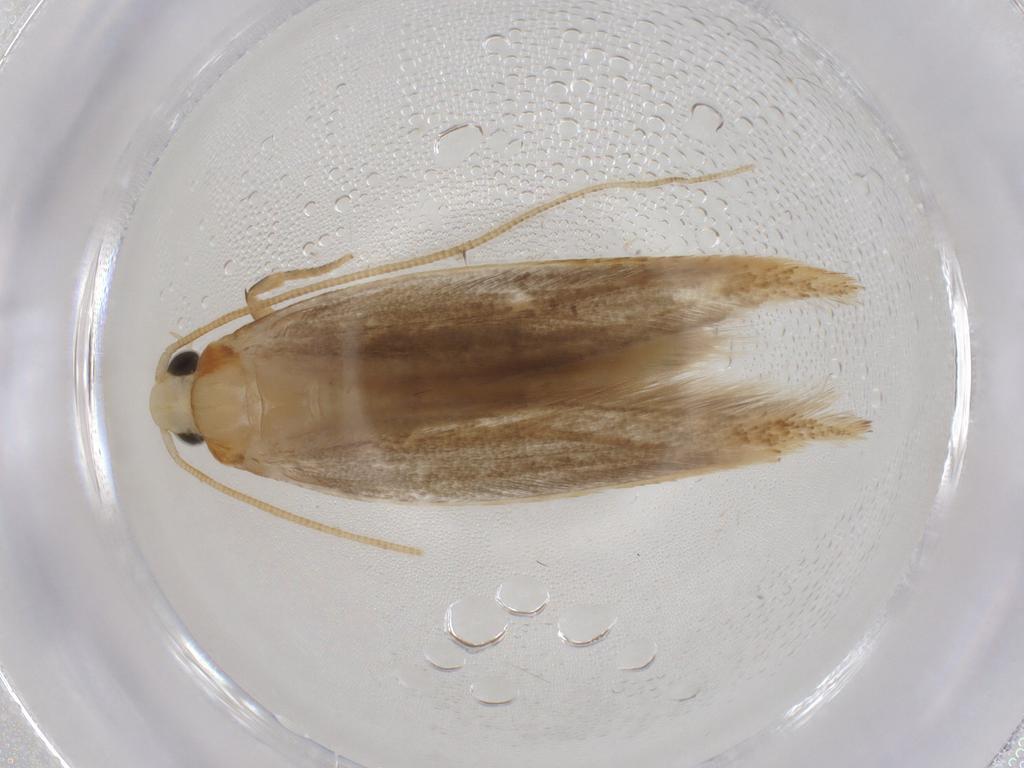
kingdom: Animalia
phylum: Arthropoda
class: Insecta
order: Lepidoptera
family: Tineidae
